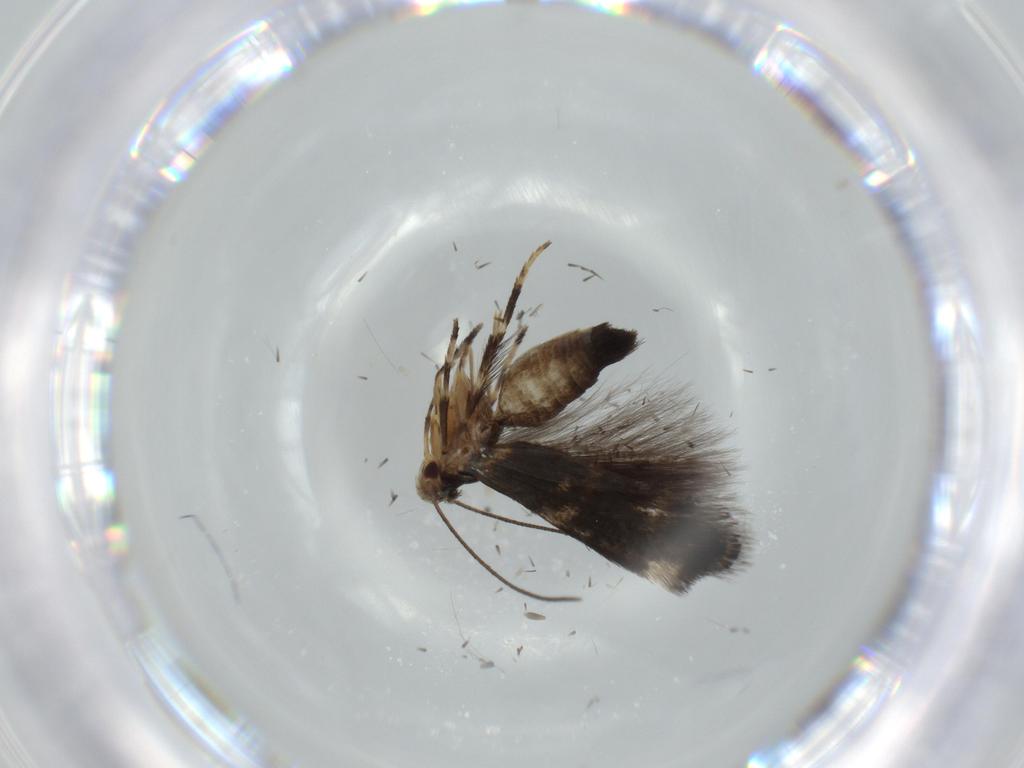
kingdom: Animalia
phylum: Arthropoda
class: Insecta
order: Lepidoptera
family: Cosmopterigidae
